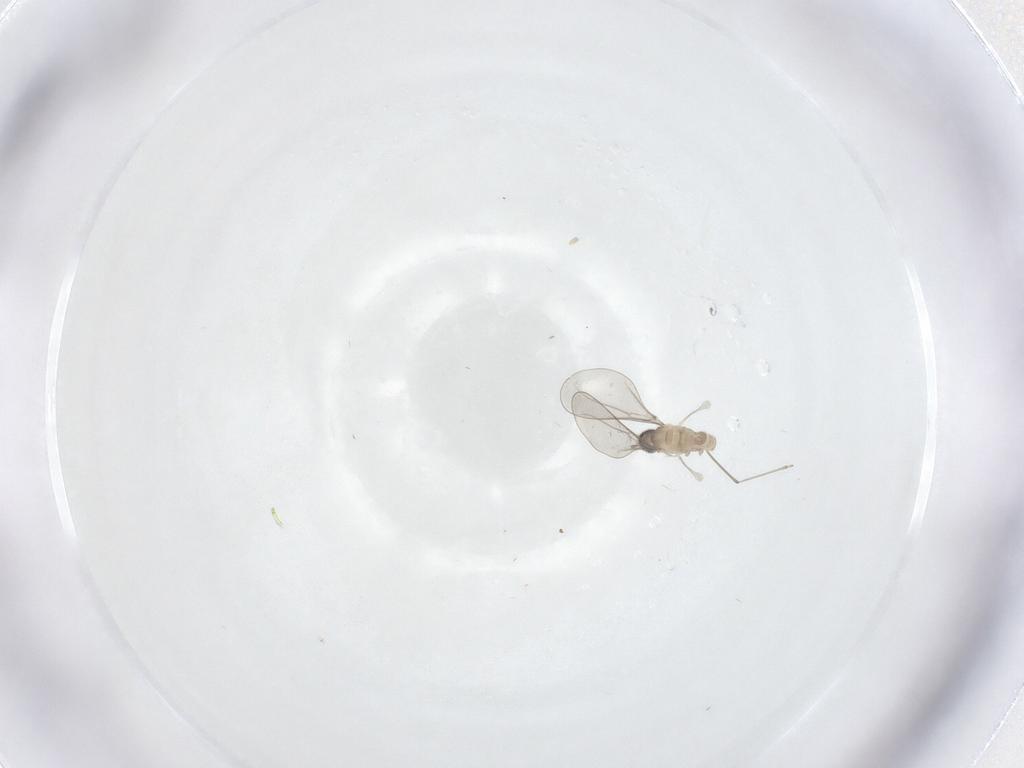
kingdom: Animalia
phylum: Arthropoda
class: Insecta
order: Diptera
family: Cecidomyiidae
